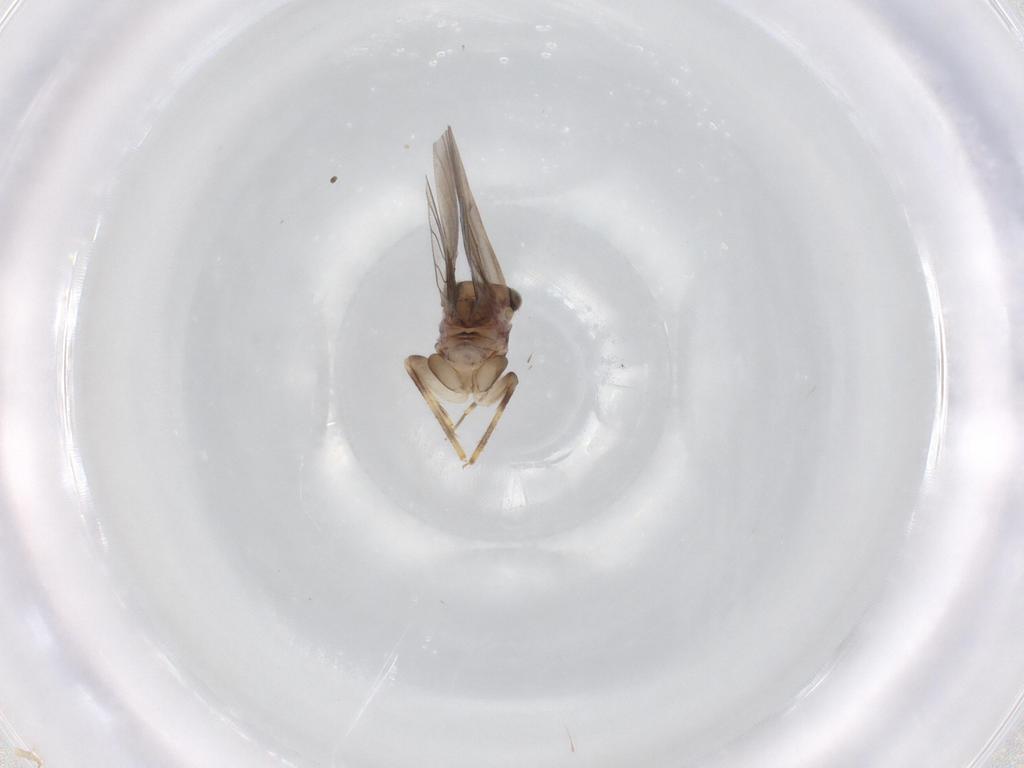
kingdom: Animalia
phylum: Arthropoda
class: Insecta
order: Psocodea
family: Lepidopsocidae
